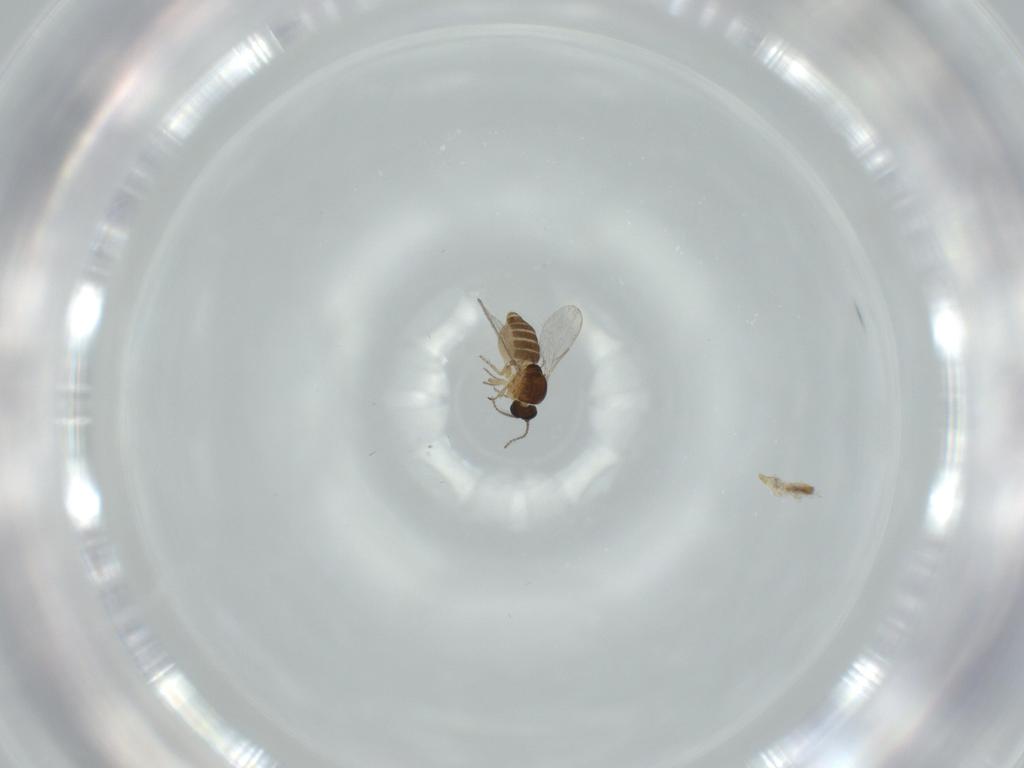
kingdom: Animalia
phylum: Arthropoda
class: Insecta
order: Diptera
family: Ceratopogonidae
